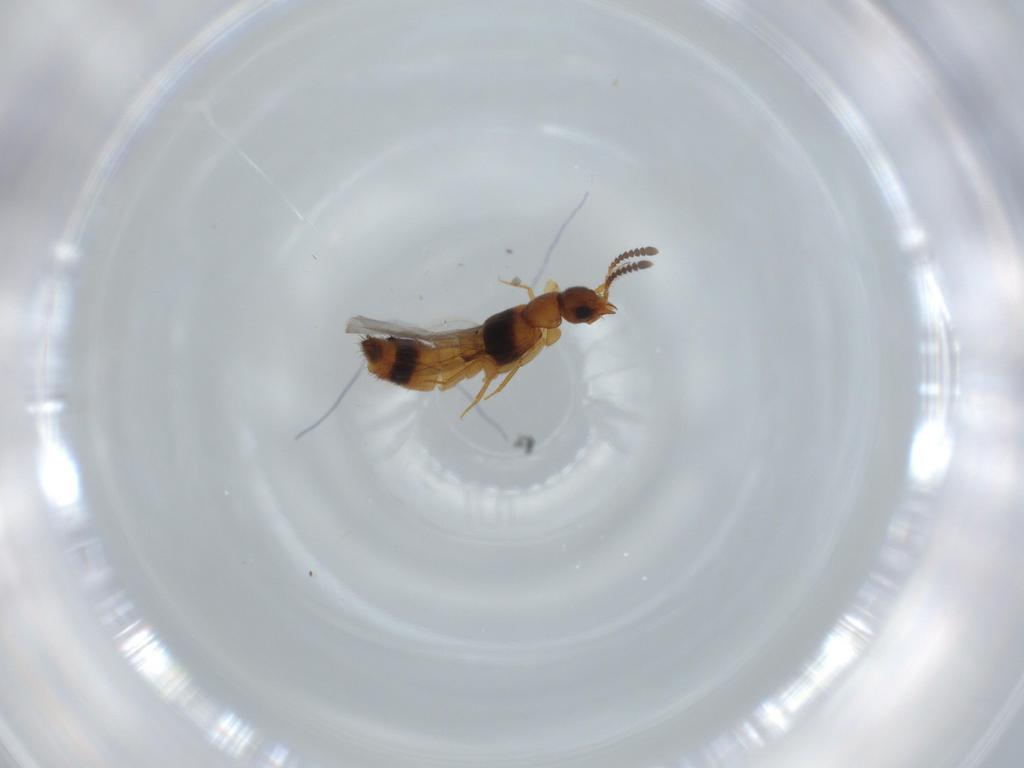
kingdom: Animalia
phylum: Arthropoda
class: Insecta
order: Coleoptera
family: Staphylinidae
